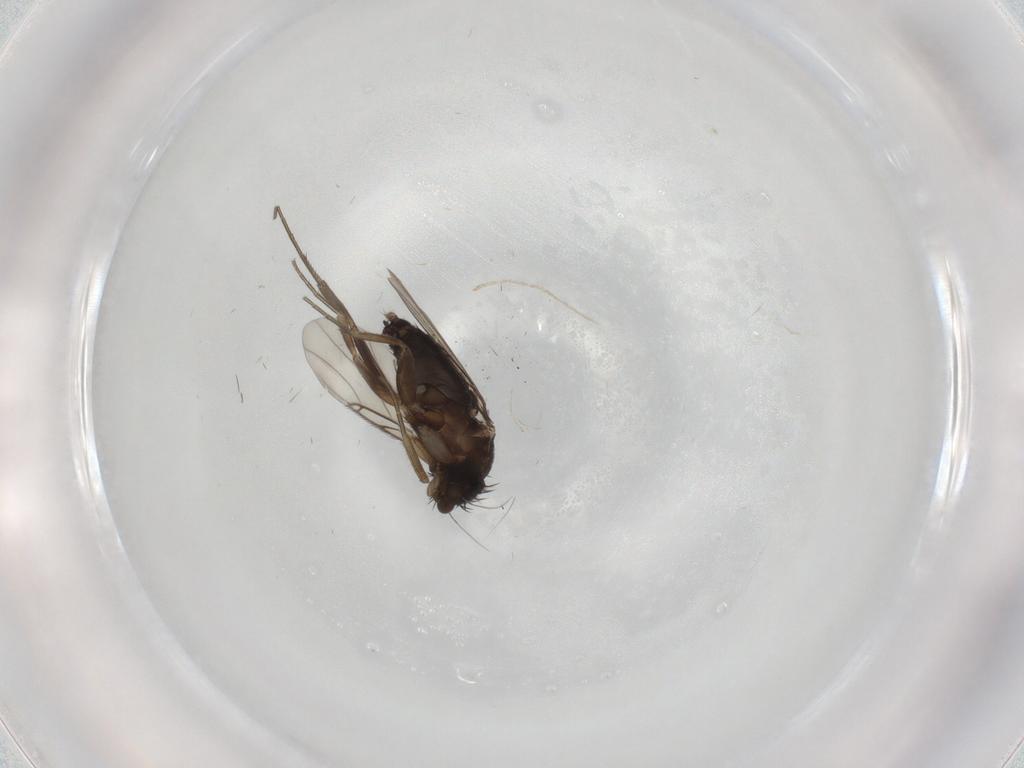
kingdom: Animalia
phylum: Arthropoda
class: Insecta
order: Diptera
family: Phoridae
